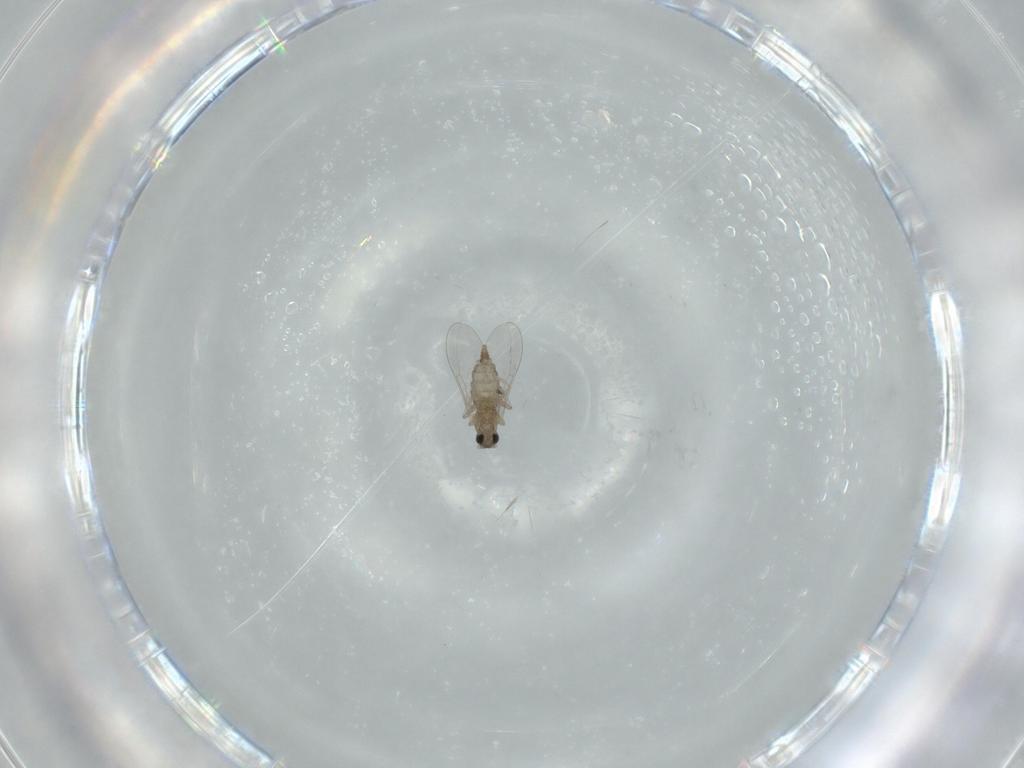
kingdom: Animalia
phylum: Arthropoda
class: Insecta
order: Diptera
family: Cecidomyiidae
